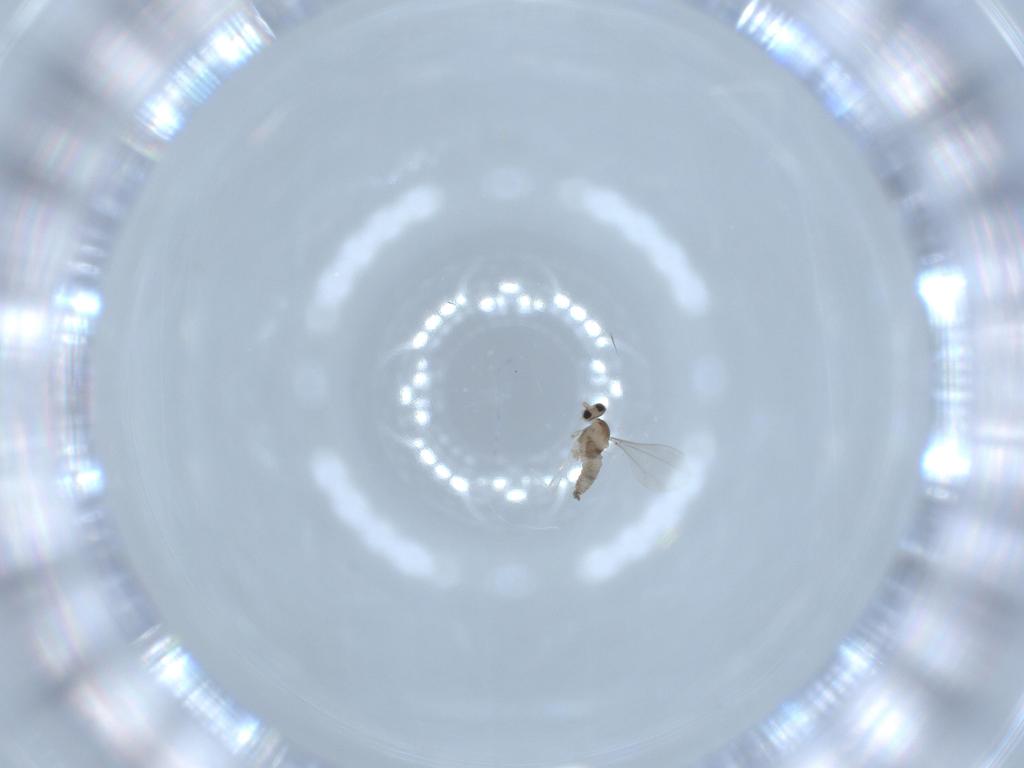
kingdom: Animalia
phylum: Arthropoda
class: Insecta
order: Diptera
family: Cecidomyiidae
